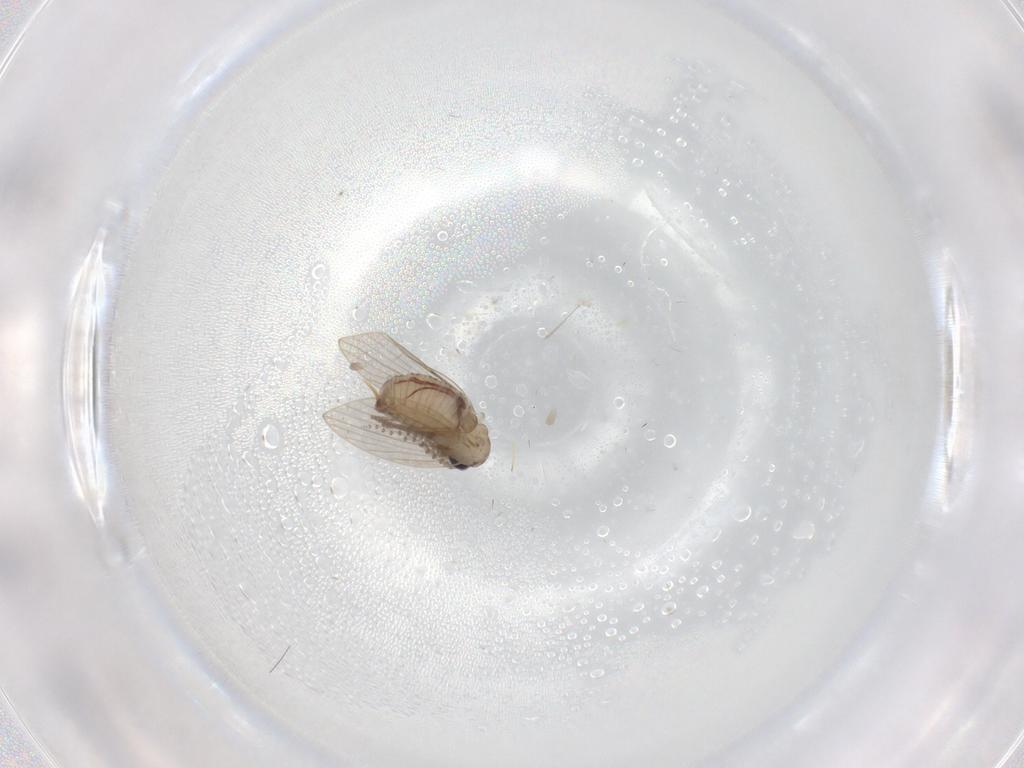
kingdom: Animalia
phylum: Arthropoda
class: Insecta
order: Diptera
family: Psychodidae
